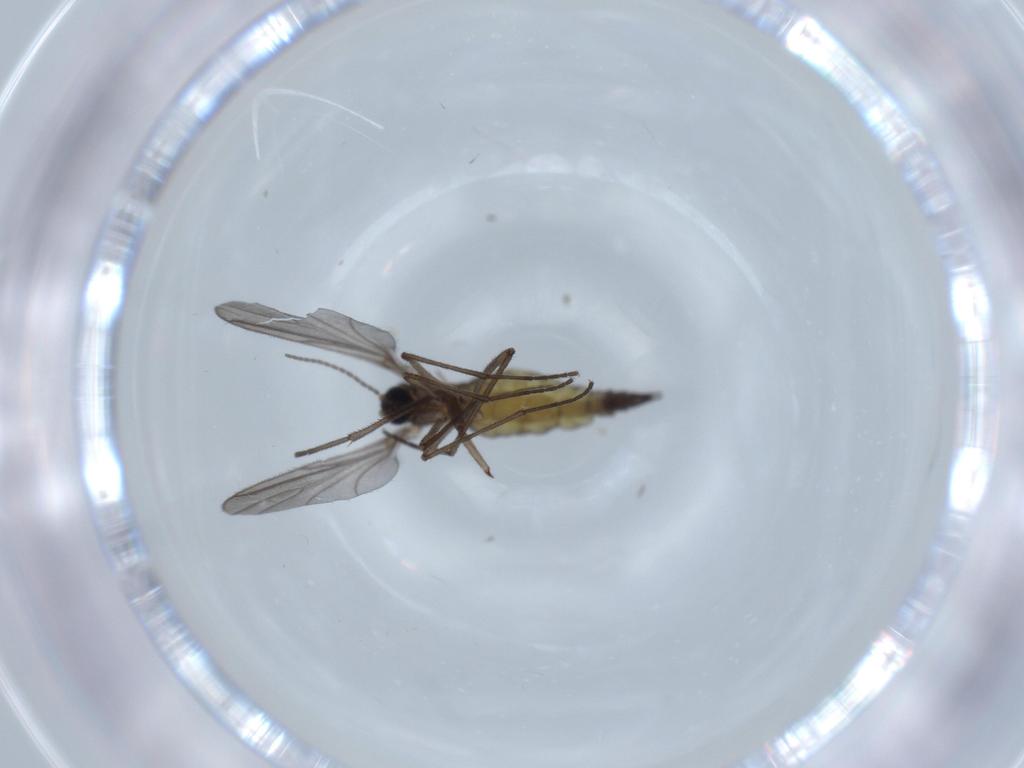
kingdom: Animalia
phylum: Arthropoda
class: Insecta
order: Diptera
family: Sciaridae
